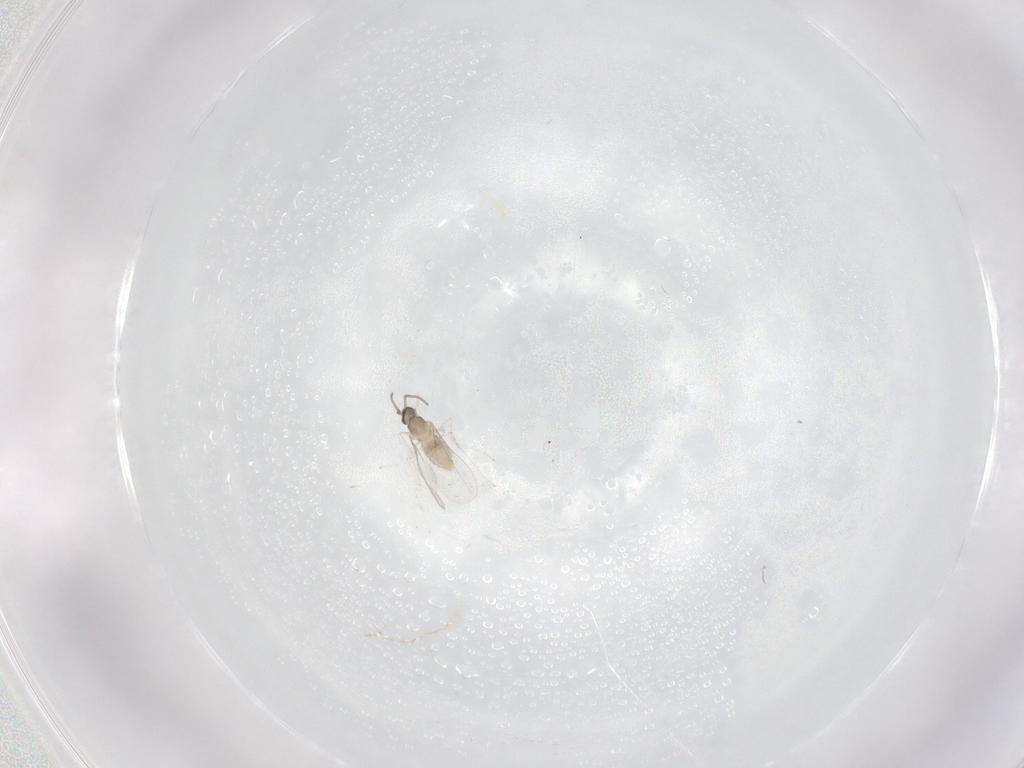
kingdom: Animalia
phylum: Arthropoda
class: Insecta
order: Diptera
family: Cecidomyiidae
